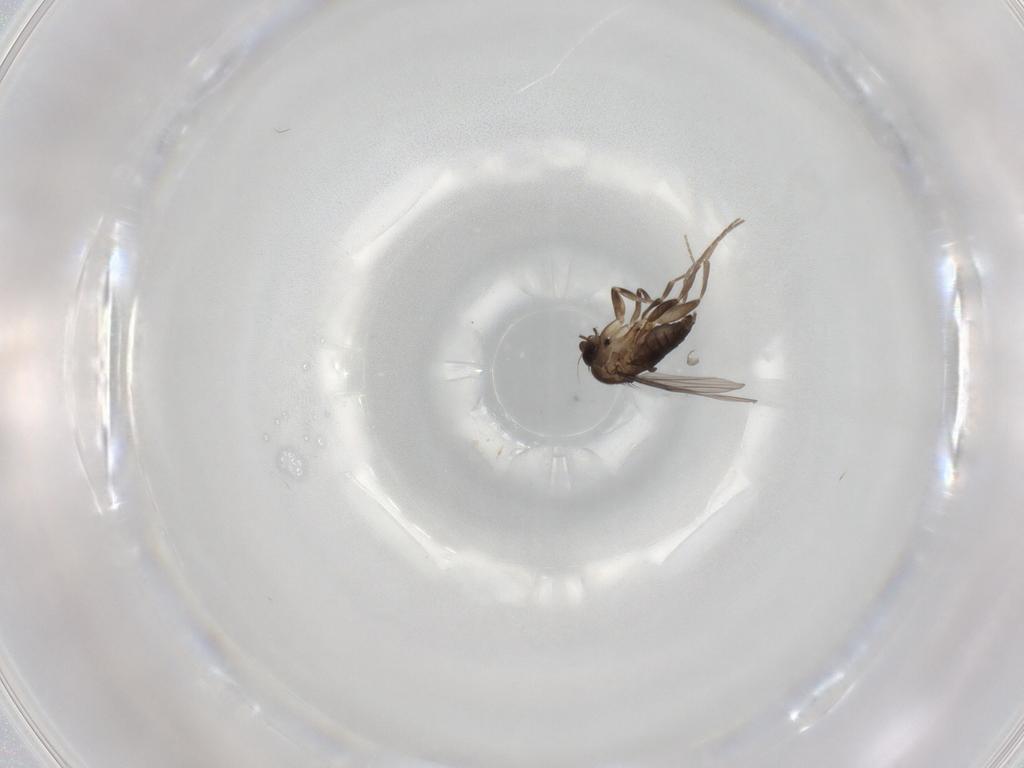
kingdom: Animalia
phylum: Arthropoda
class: Insecta
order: Diptera
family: Phoridae
